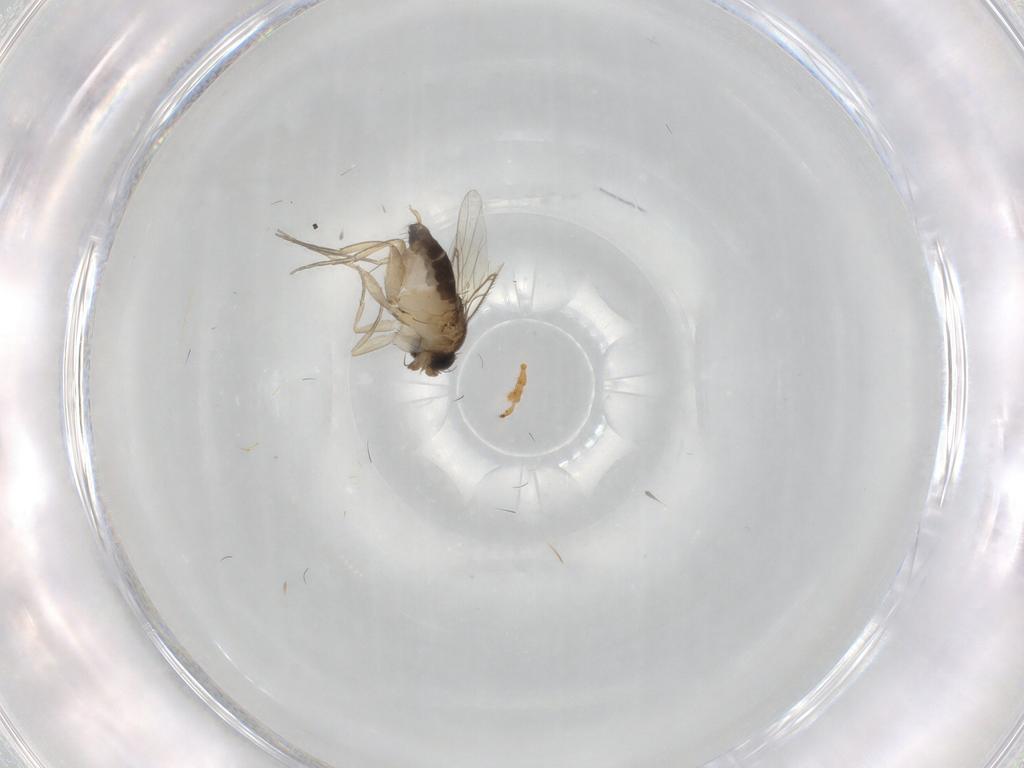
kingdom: Animalia
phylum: Arthropoda
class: Insecta
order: Diptera
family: Phoridae
